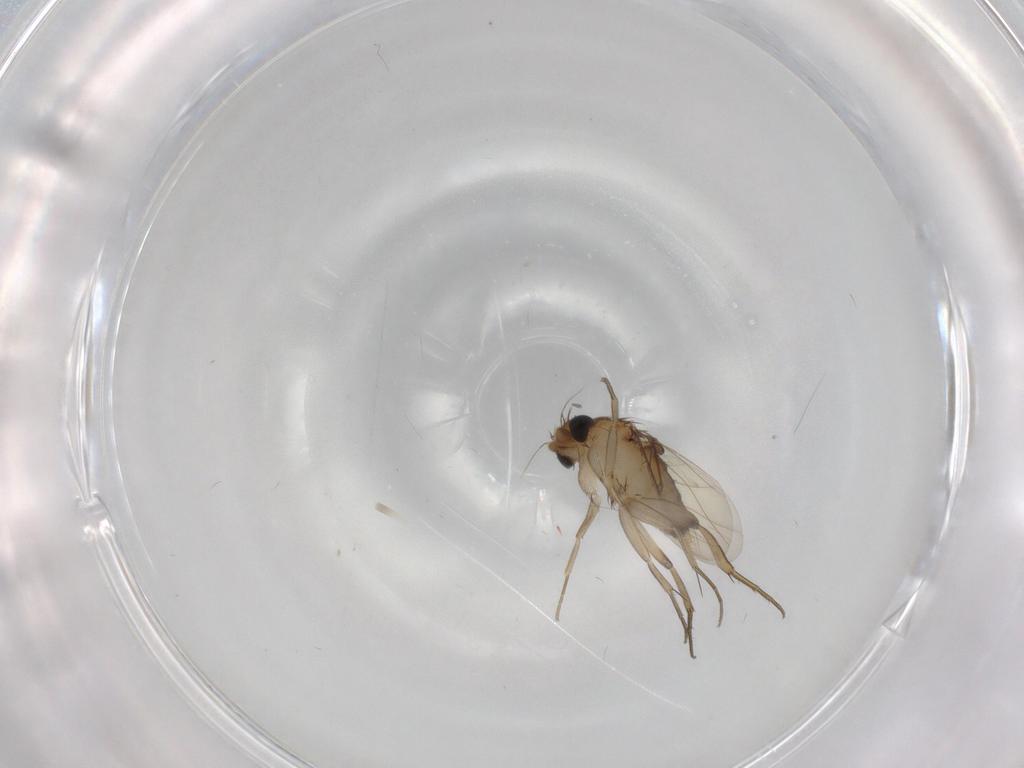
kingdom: Animalia
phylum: Arthropoda
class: Insecta
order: Diptera
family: Phoridae
